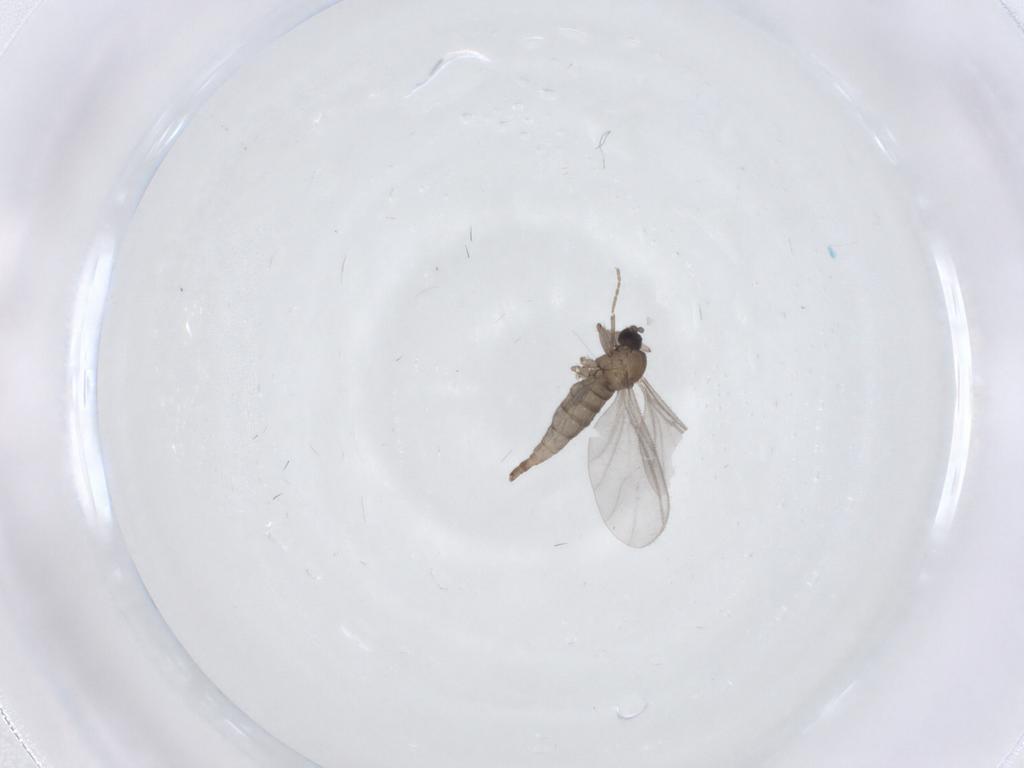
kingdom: Animalia
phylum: Arthropoda
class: Insecta
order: Diptera
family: Sciaridae
